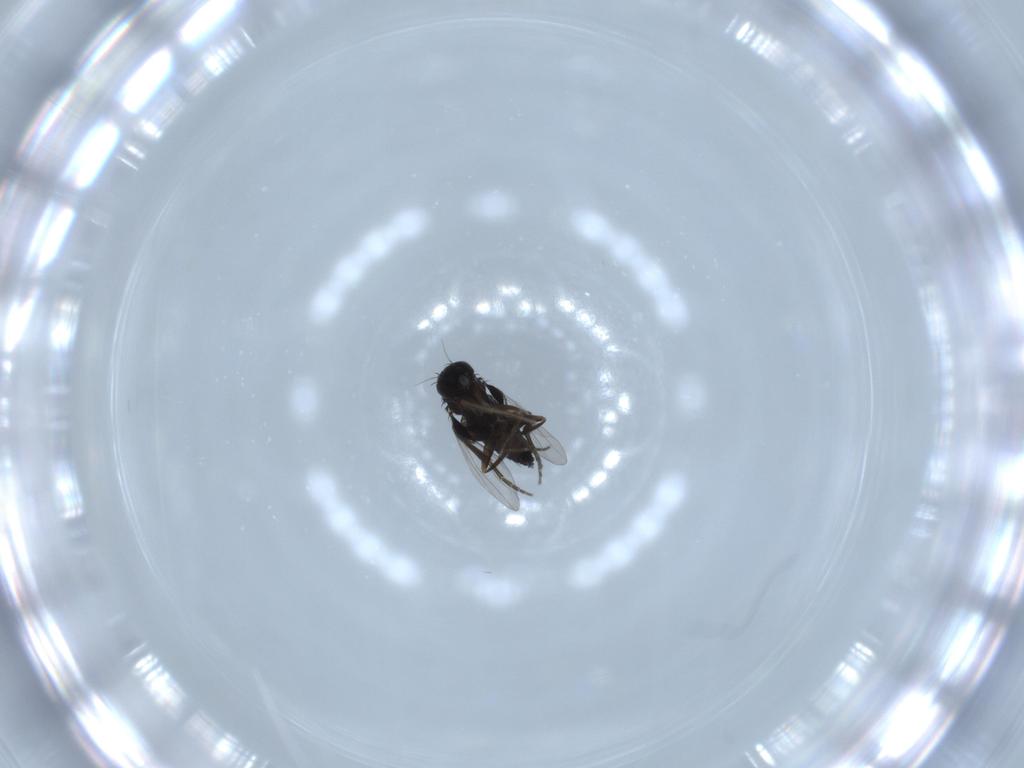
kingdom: Animalia
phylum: Arthropoda
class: Insecta
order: Diptera
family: Phoridae
